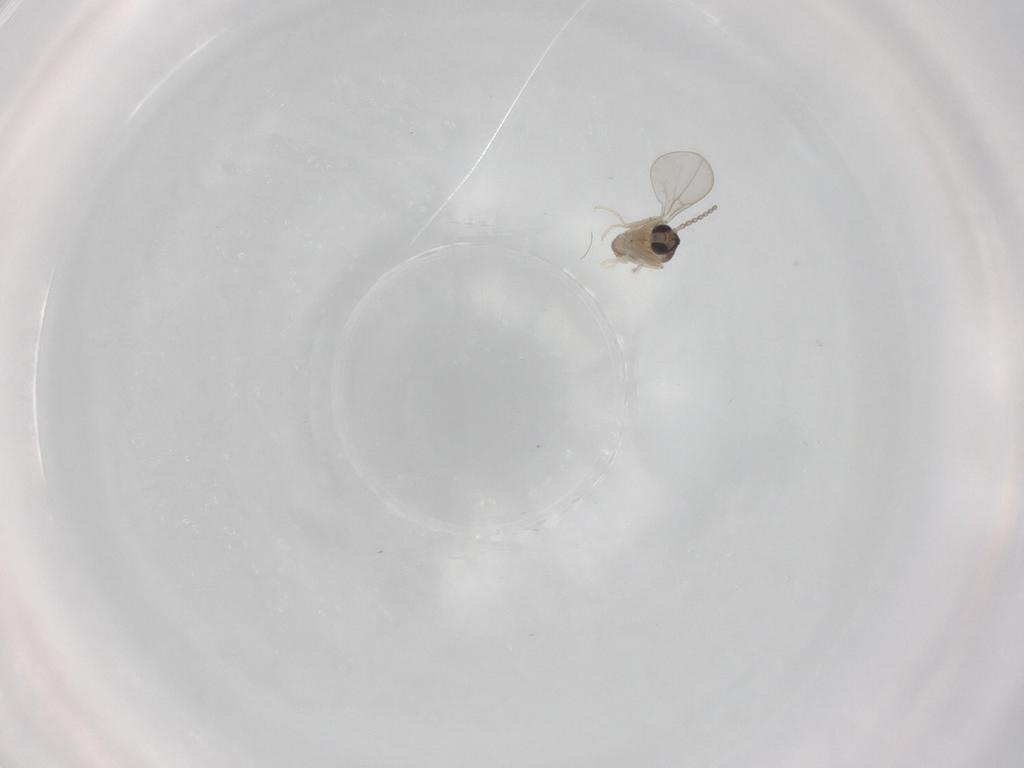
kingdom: Animalia
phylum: Arthropoda
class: Insecta
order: Diptera
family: Cecidomyiidae
